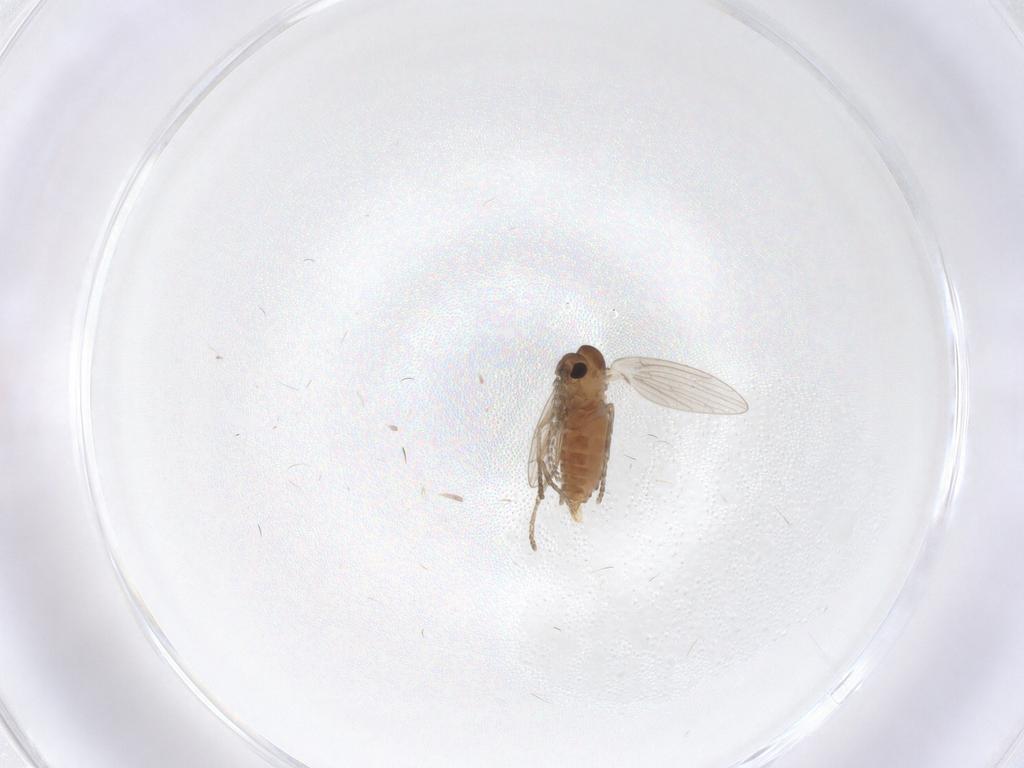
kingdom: Animalia
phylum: Arthropoda
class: Insecta
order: Diptera
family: Psychodidae
